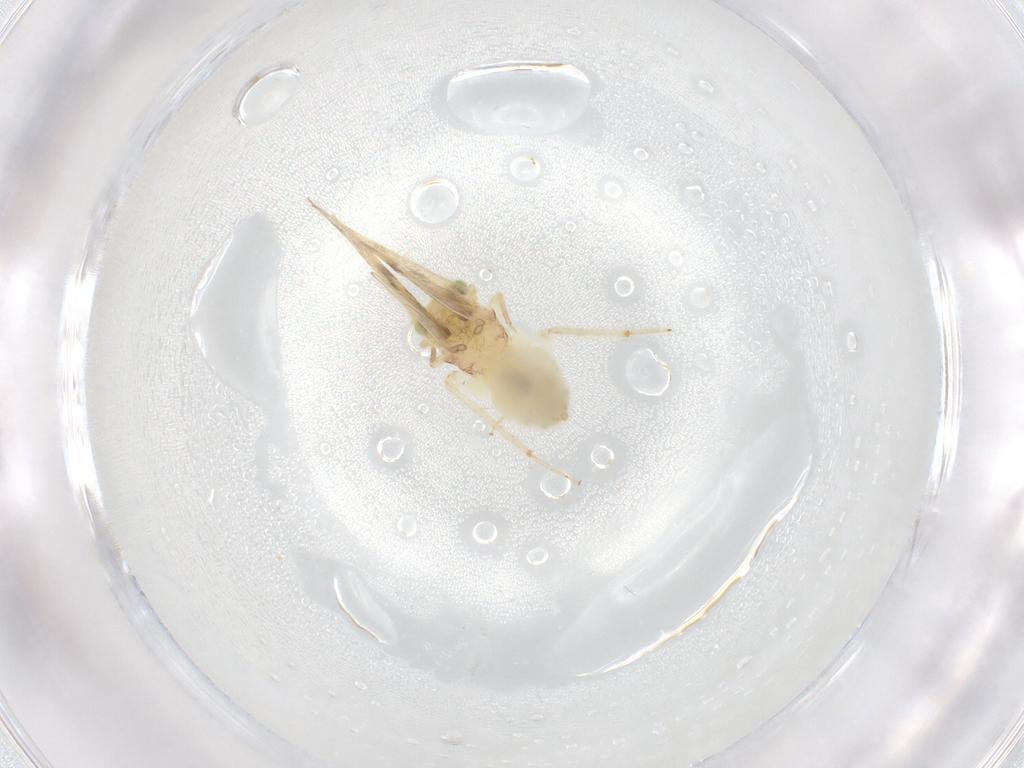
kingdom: Animalia
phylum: Arthropoda
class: Insecta
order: Psocodea
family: Lepidopsocidae
